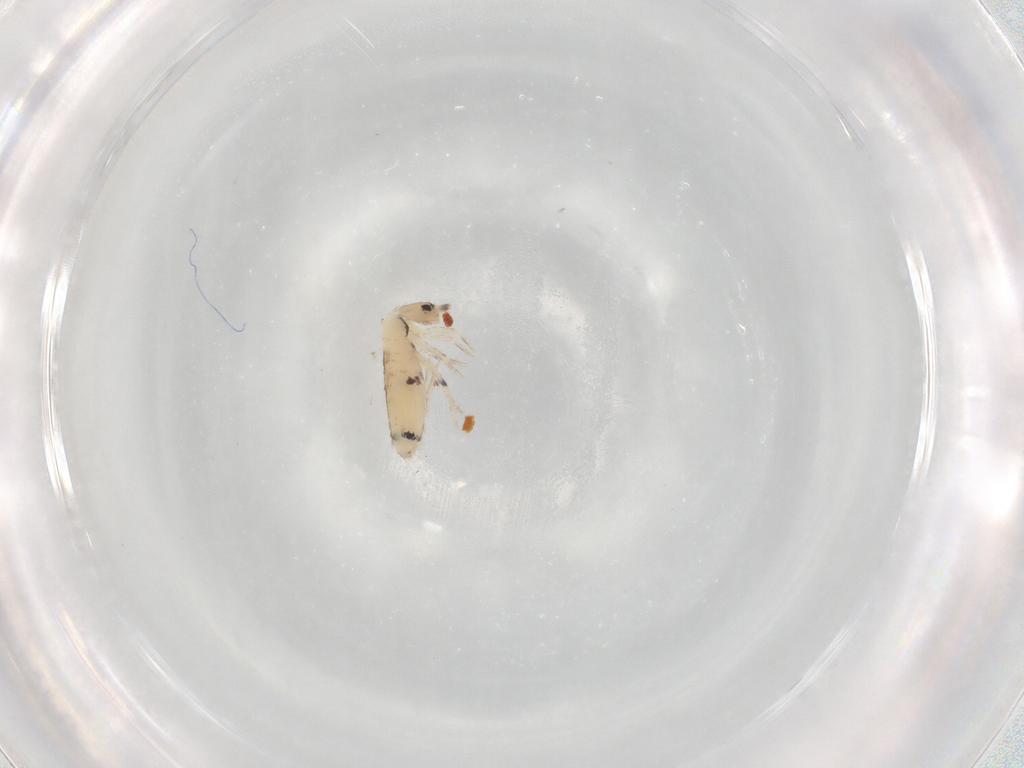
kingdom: Animalia
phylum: Arthropoda
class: Collembola
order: Entomobryomorpha
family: Entomobryidae
